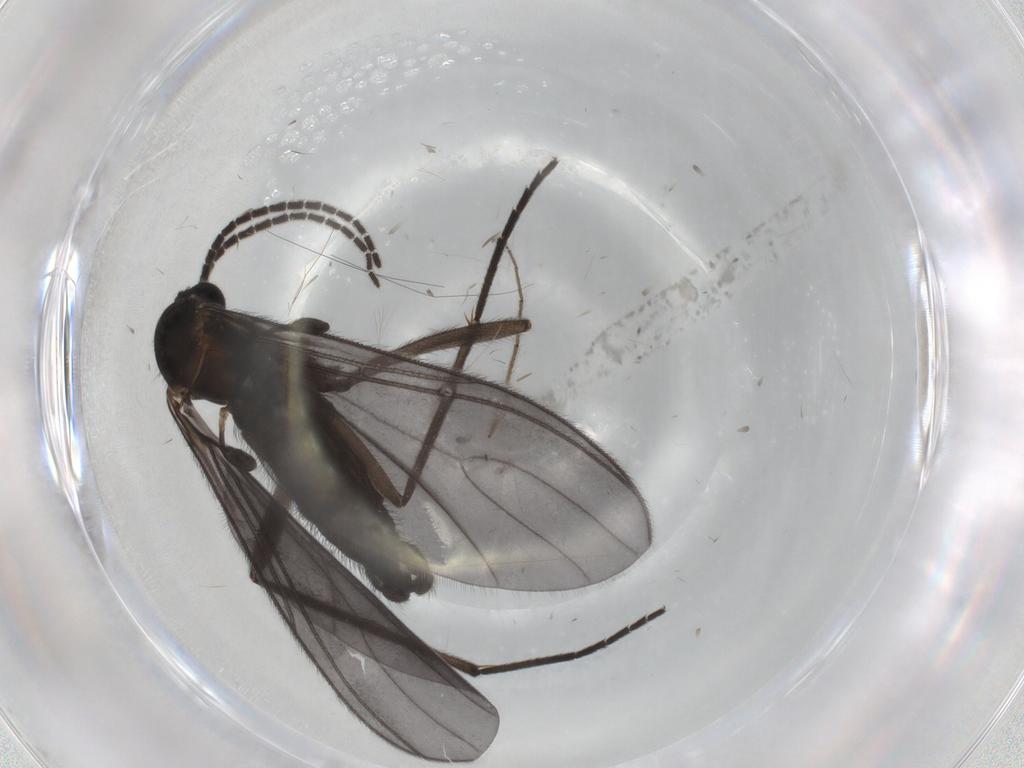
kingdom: Animalia
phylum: Arthropoda
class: Insecta
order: Diptera
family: Sciaridae
